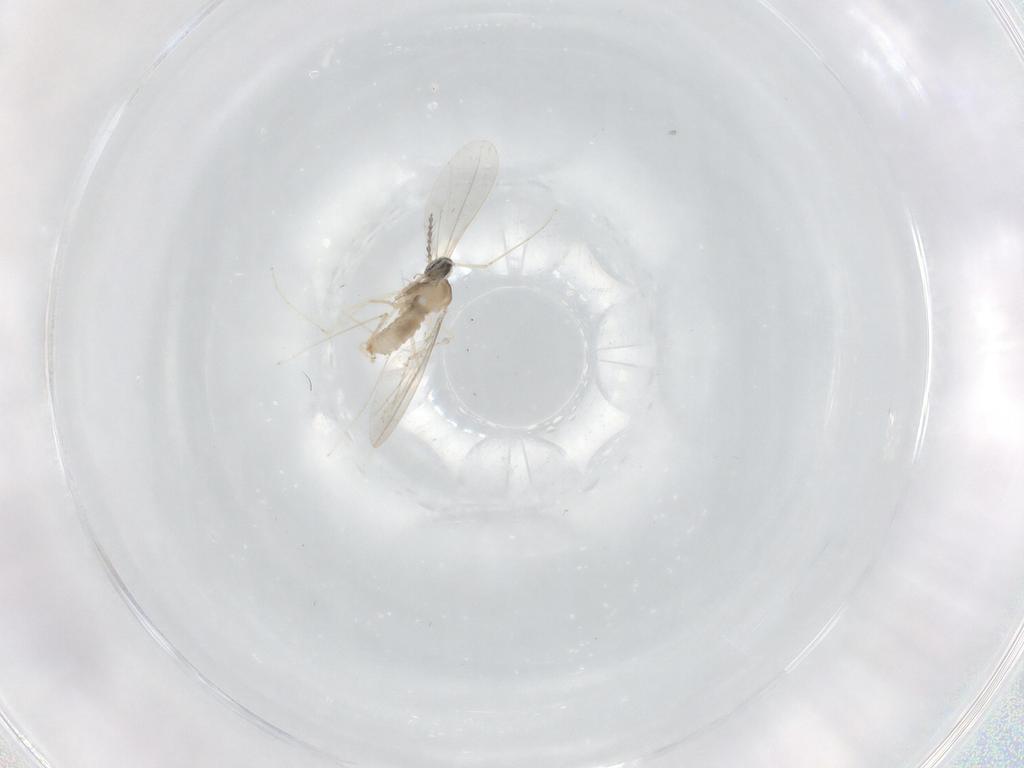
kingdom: Animalia
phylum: Arthropoda
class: Insecta
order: Diptera
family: Cecidomyiidae
